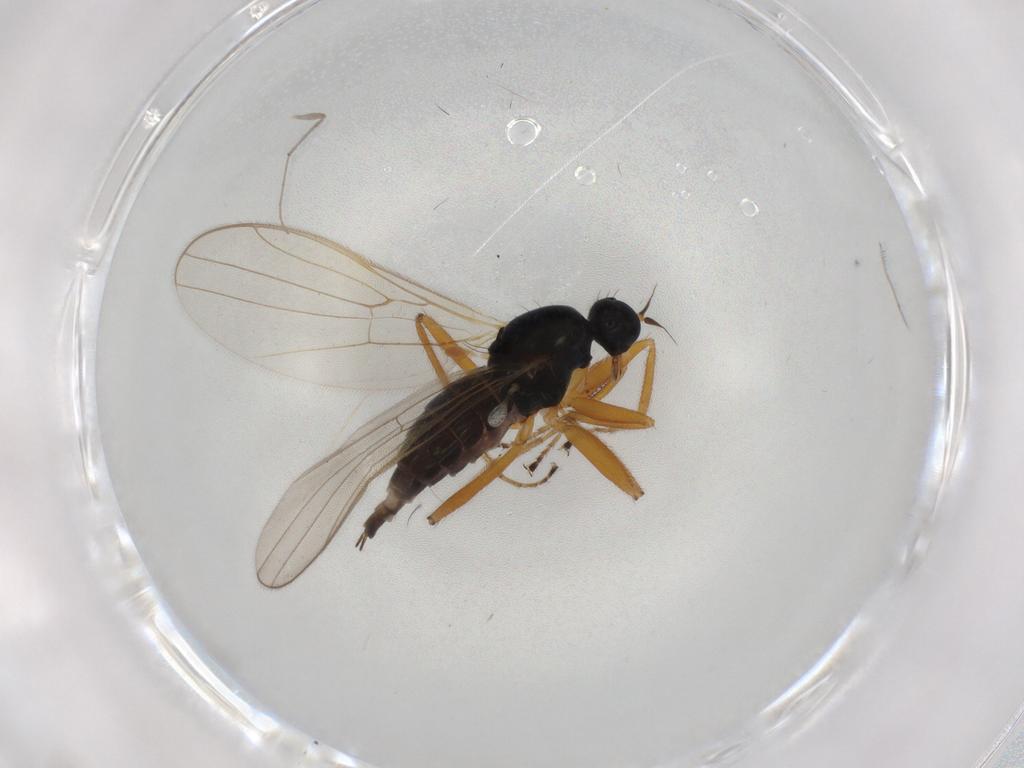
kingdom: Animalia
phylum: Arthropoda
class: Insecta
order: Diptera
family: Hybotidae
